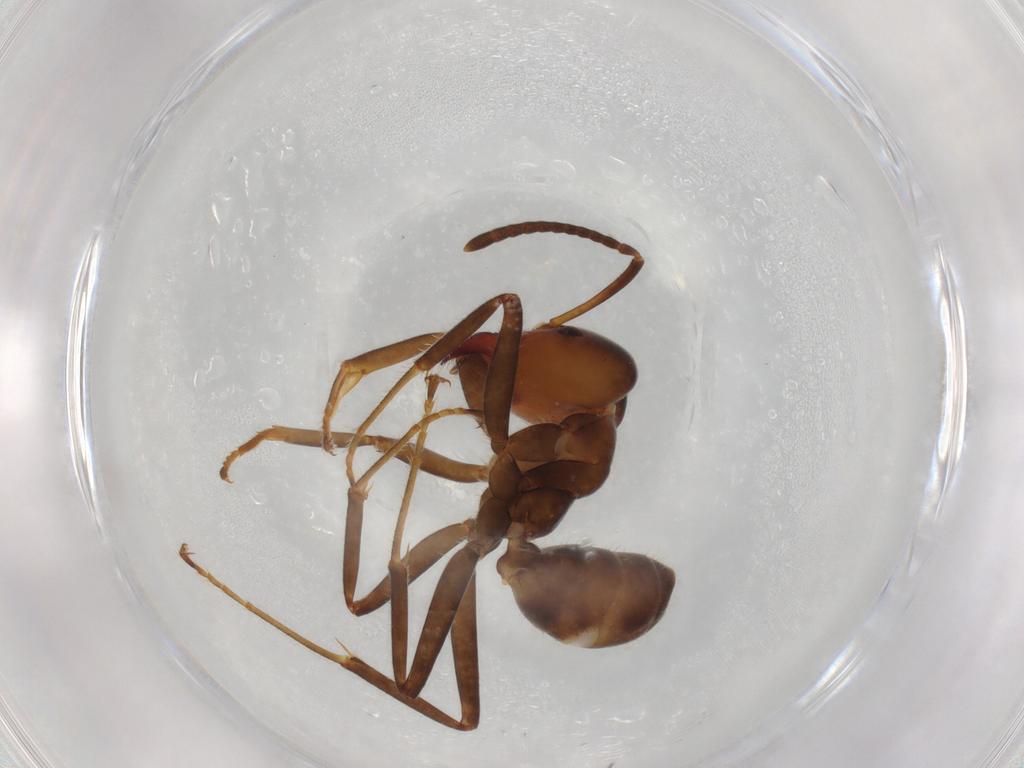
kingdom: Animalia
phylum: Arthropoda
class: Insecta
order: Hymenoptera
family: Formicidae
